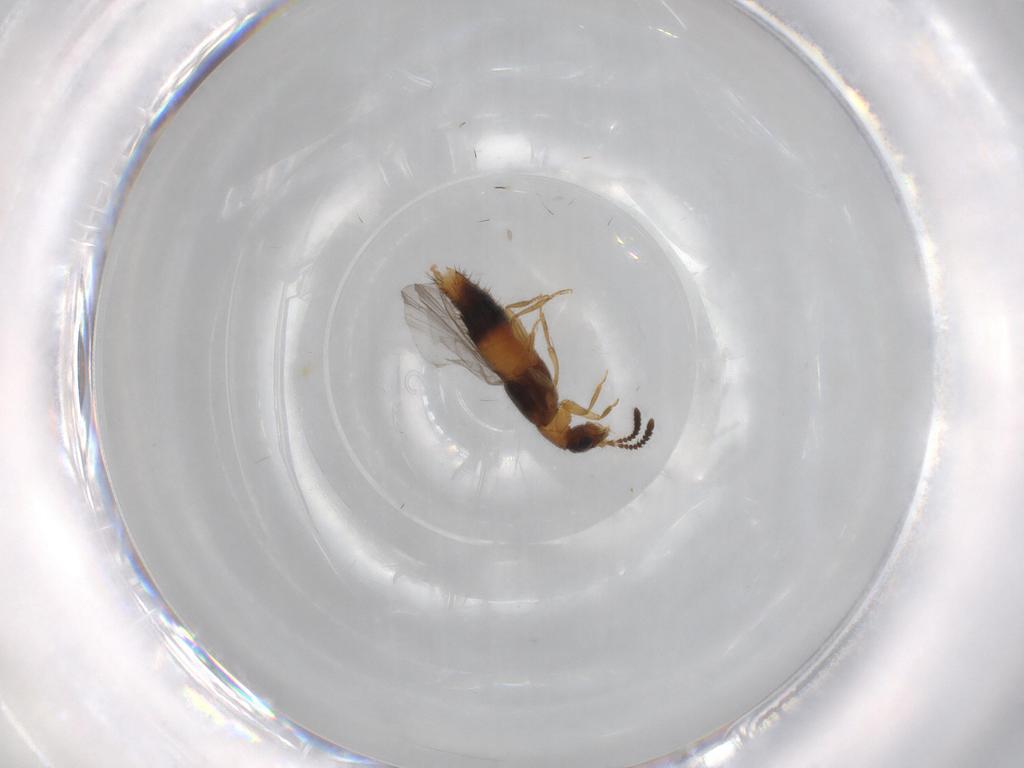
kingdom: Animalia
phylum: Arthropoda
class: Insecta
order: Coleoptera
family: Staphylinidae
